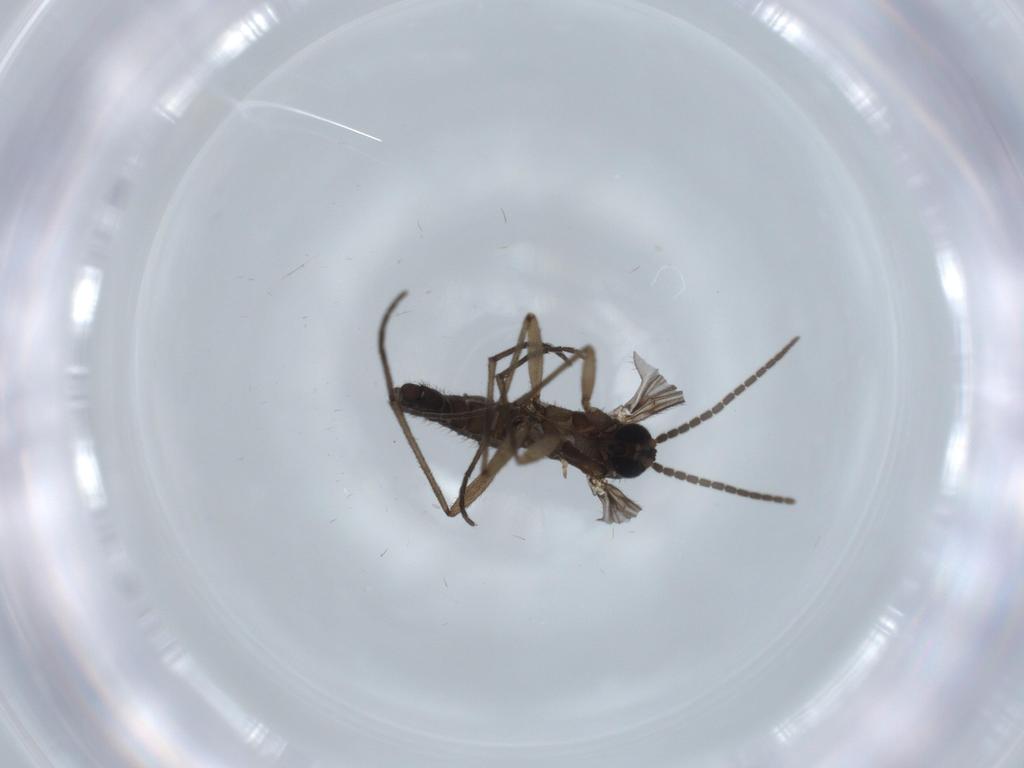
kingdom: Animalia
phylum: Arthropoda
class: Insecta
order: Diptera
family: Sciaridae
